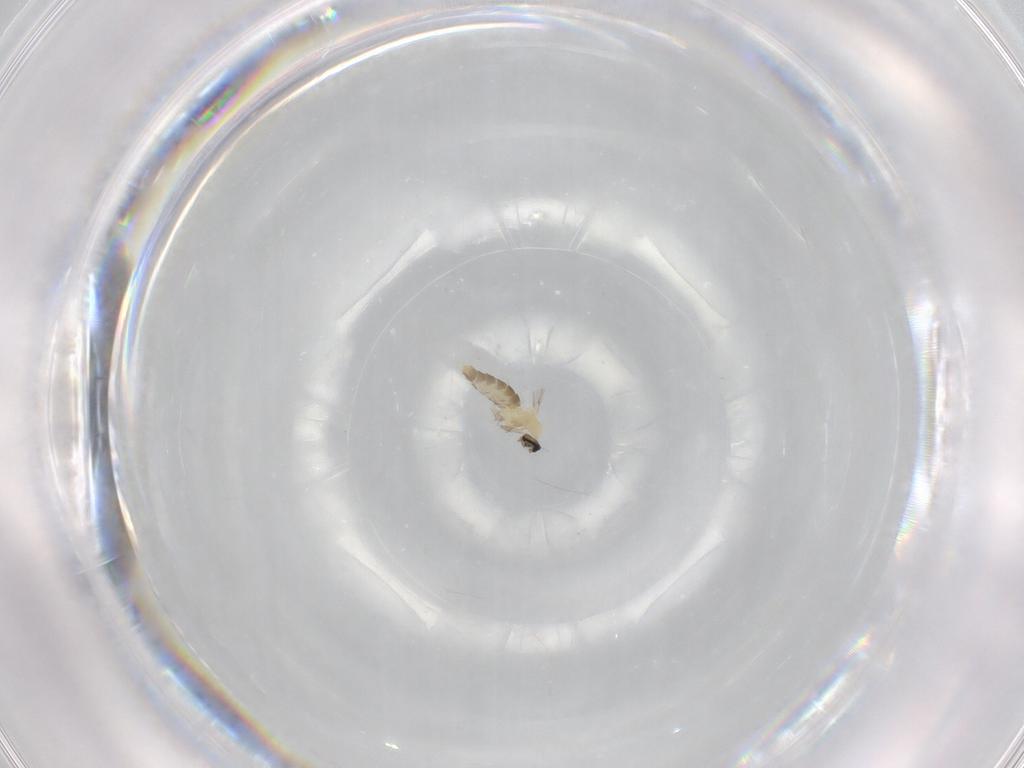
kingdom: Animalia
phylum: Arthropoda
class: Insecta
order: Diptera
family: Cecidomyiidae
